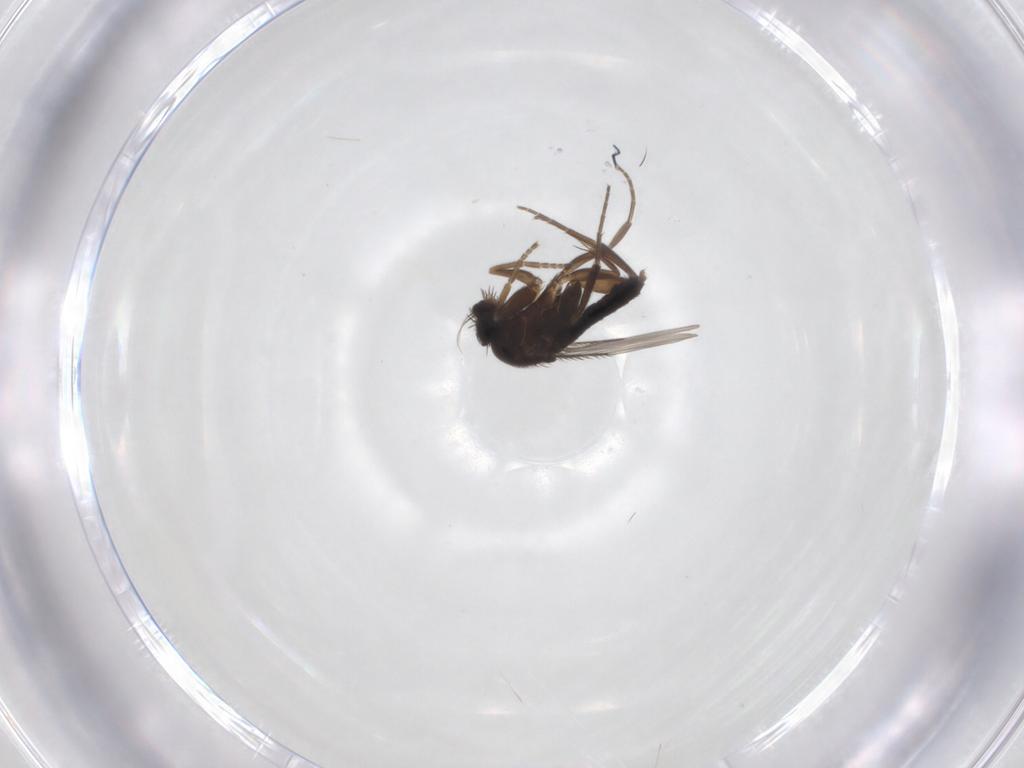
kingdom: Animalia
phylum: Arthropoda
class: Insecta
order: Diptera
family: Phoridae
